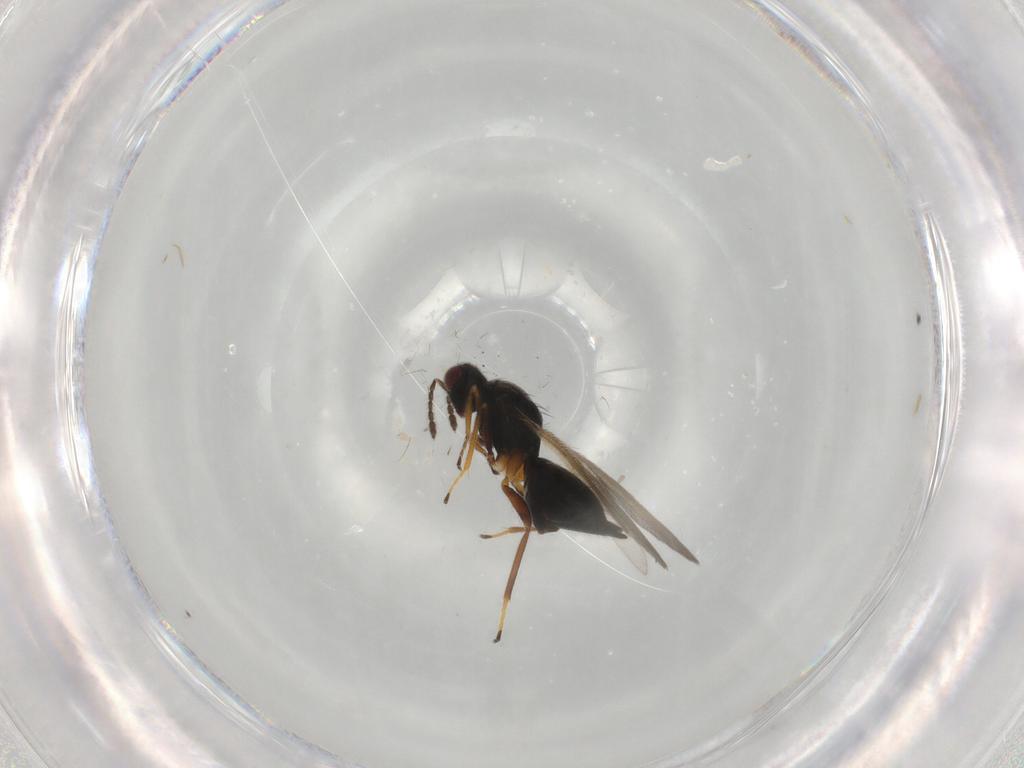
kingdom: Animalia
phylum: Arthropoda
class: Insecta
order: Hymenoptera
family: Eulophidae
